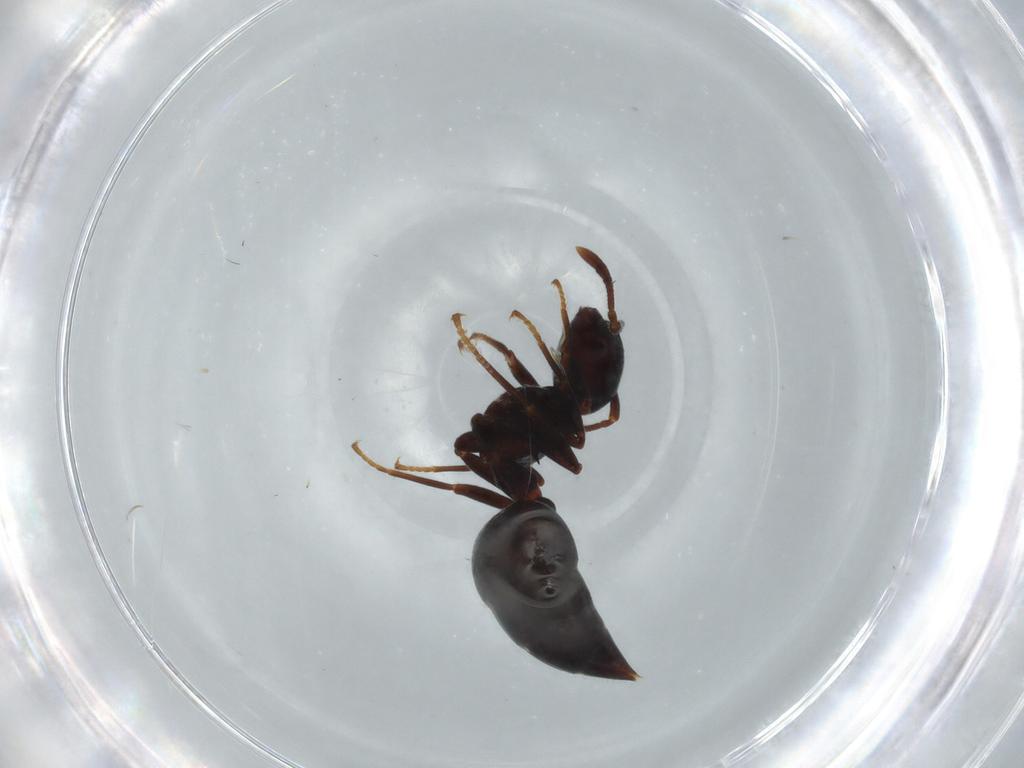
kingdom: Animalia
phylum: Arthropoda
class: Insecta
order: Hymenoptera
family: Formicidae
